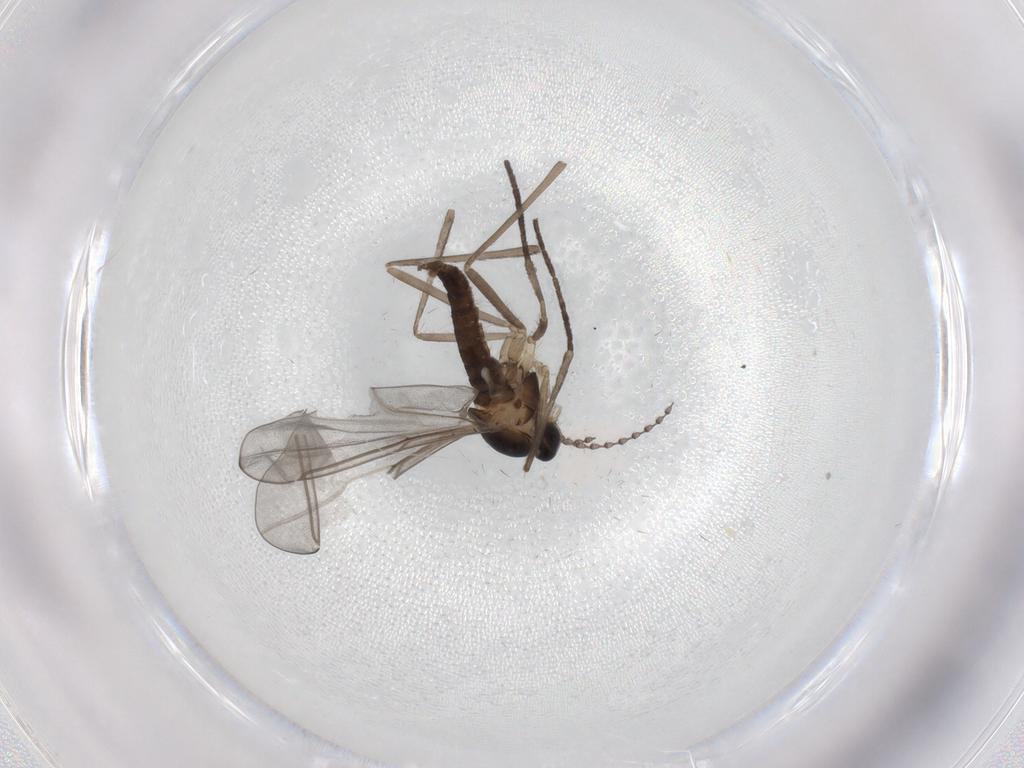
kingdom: Animalia
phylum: Arthropoda
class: Insecta
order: Diptera
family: Cecidomyiidae
